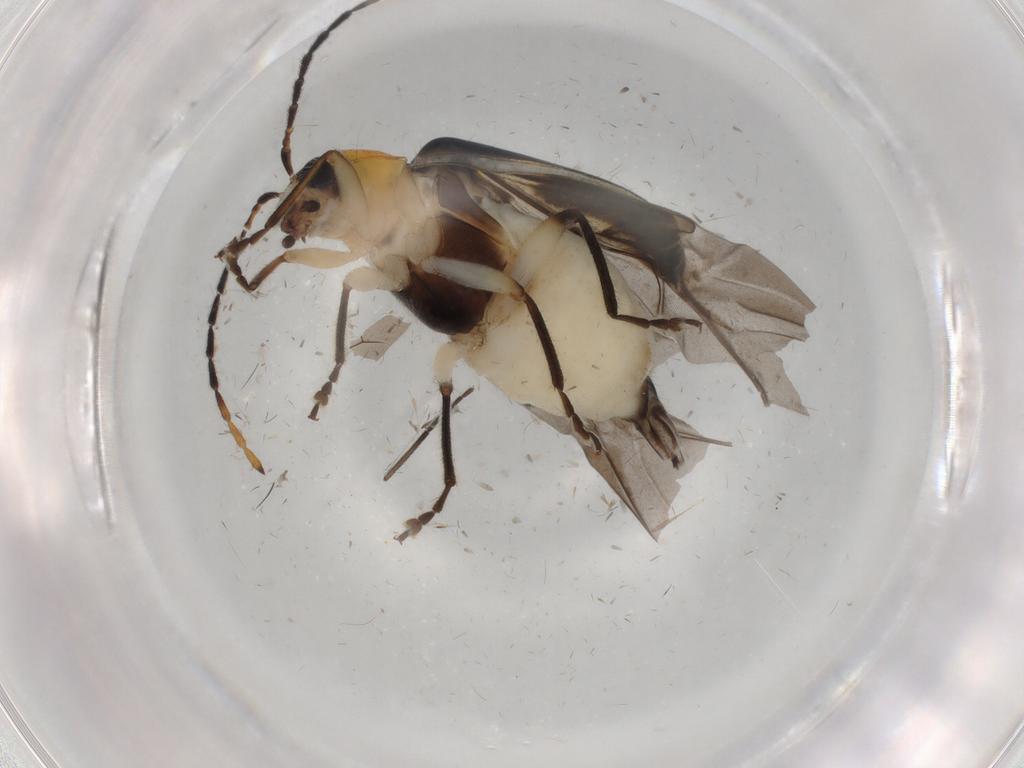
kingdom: Animalia
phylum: Arthropoda
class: Insecta
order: Coleoptera
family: Chrysomelidae
